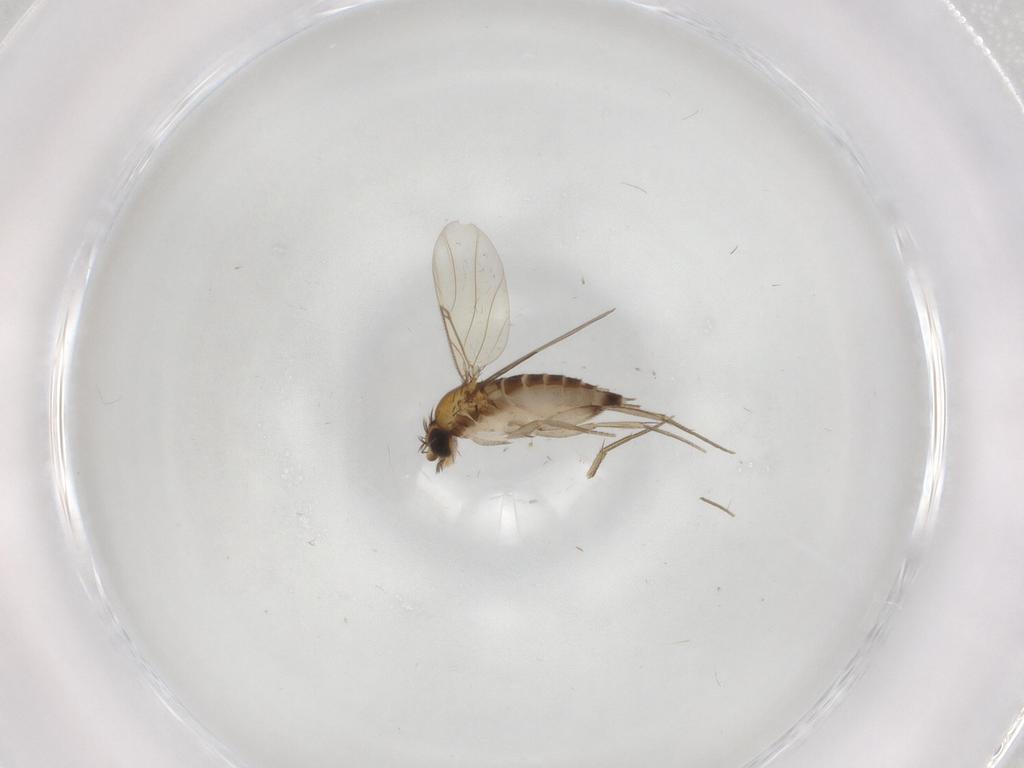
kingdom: Animalia
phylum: Arthropoda
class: Insecta
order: Diptera
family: Phoridae
